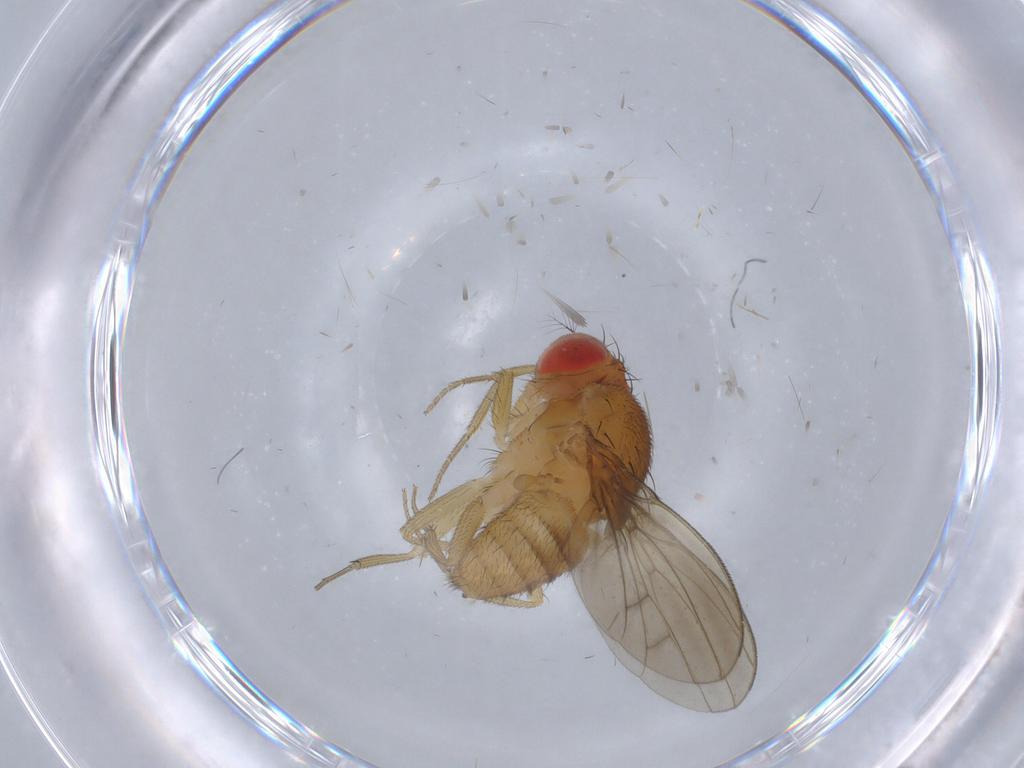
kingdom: Animalia
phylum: Arthropoda
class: Insecta
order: Diptera
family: Drosophilidae
